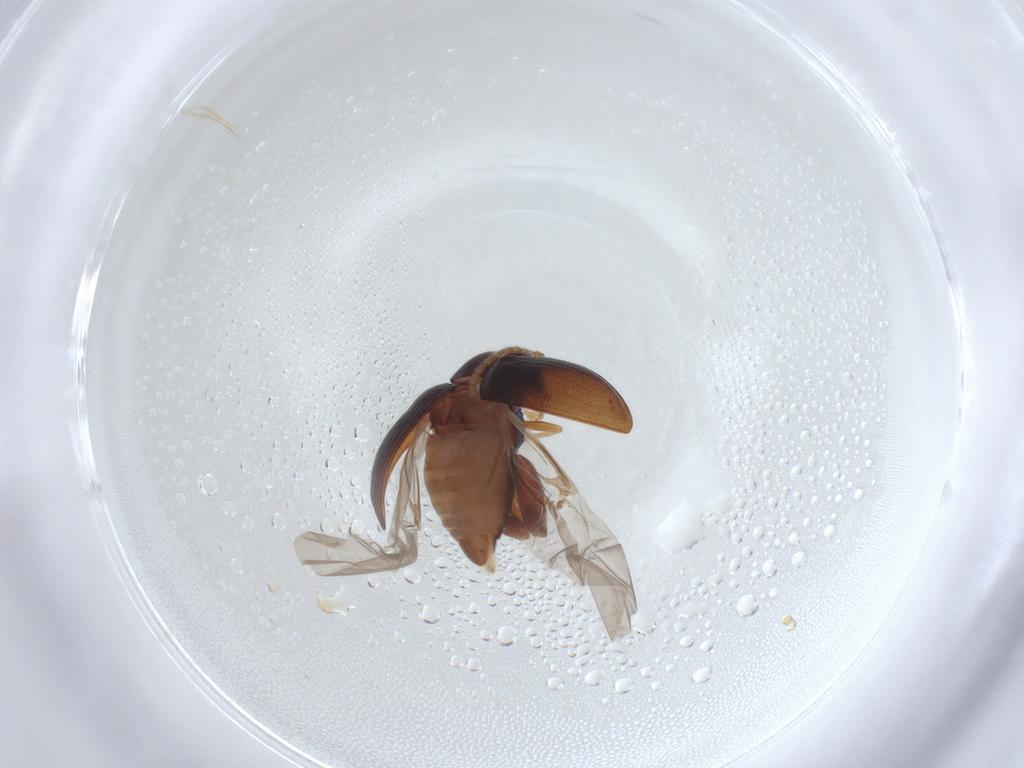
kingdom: Animalia
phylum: Arthropoda
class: Insecta
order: Coleoptera
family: Chrysomelidae
